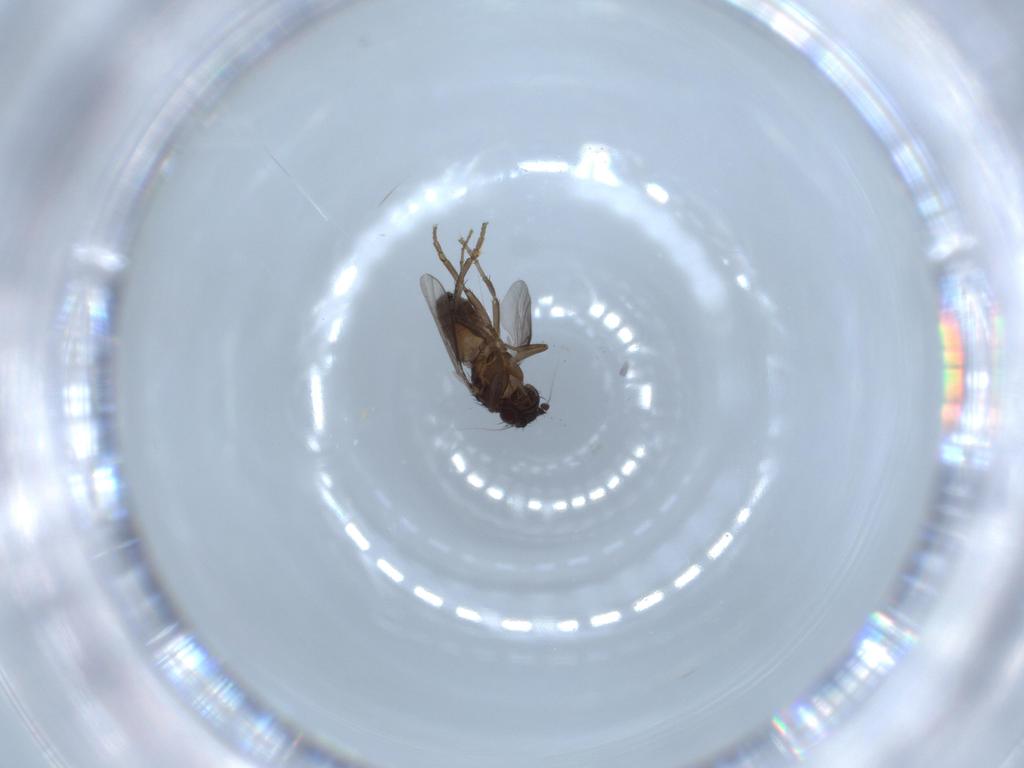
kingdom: Animalia
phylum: Arthropoda
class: Insecta
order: Diptera
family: Sphaeroceridae
